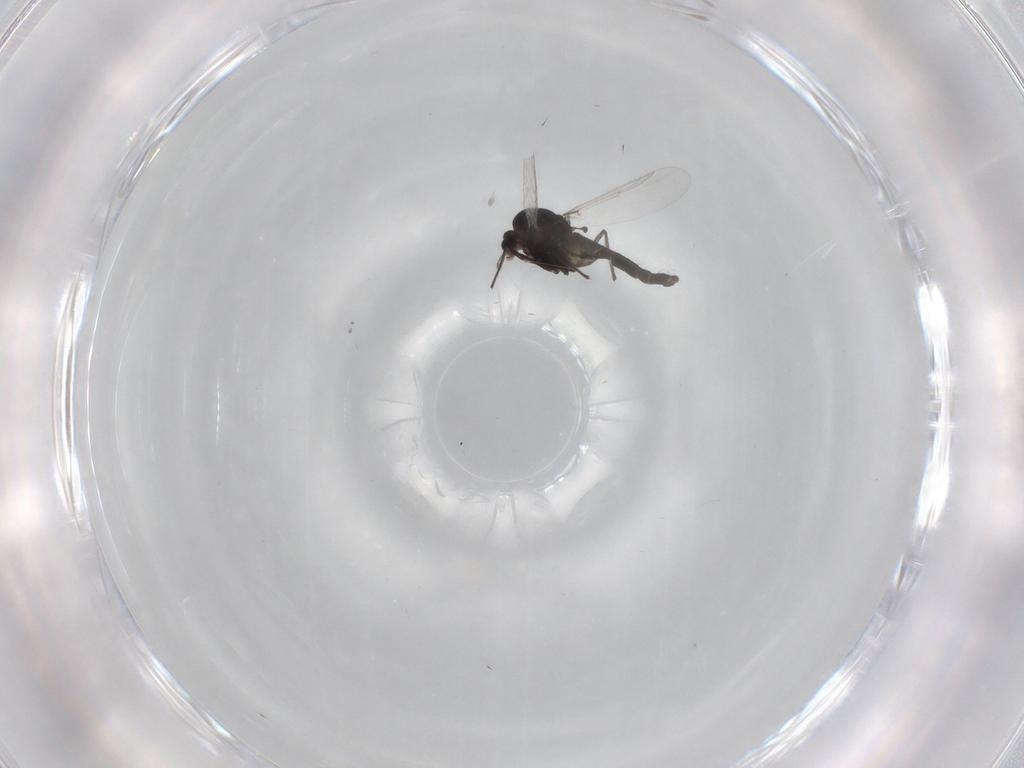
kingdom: Animalia
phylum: Arthropoda
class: Insecta
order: Diptera
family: Chironomidae
